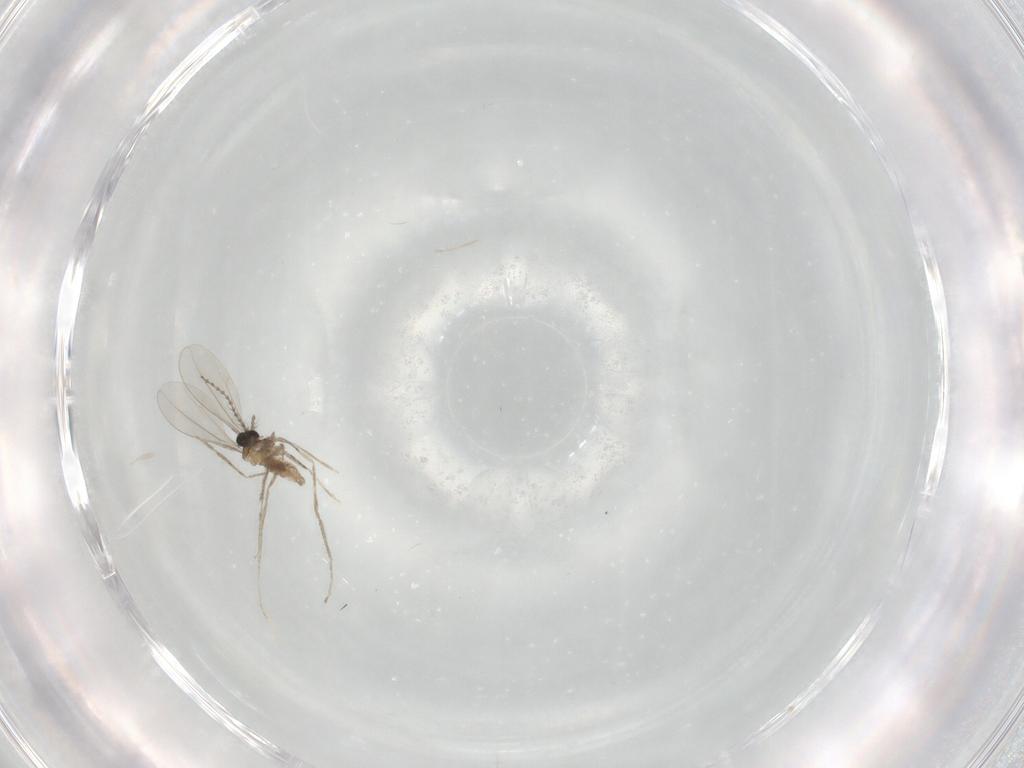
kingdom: Animalia
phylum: Arthropoda
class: Insecta
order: Diptera
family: Cecidomyiidae
